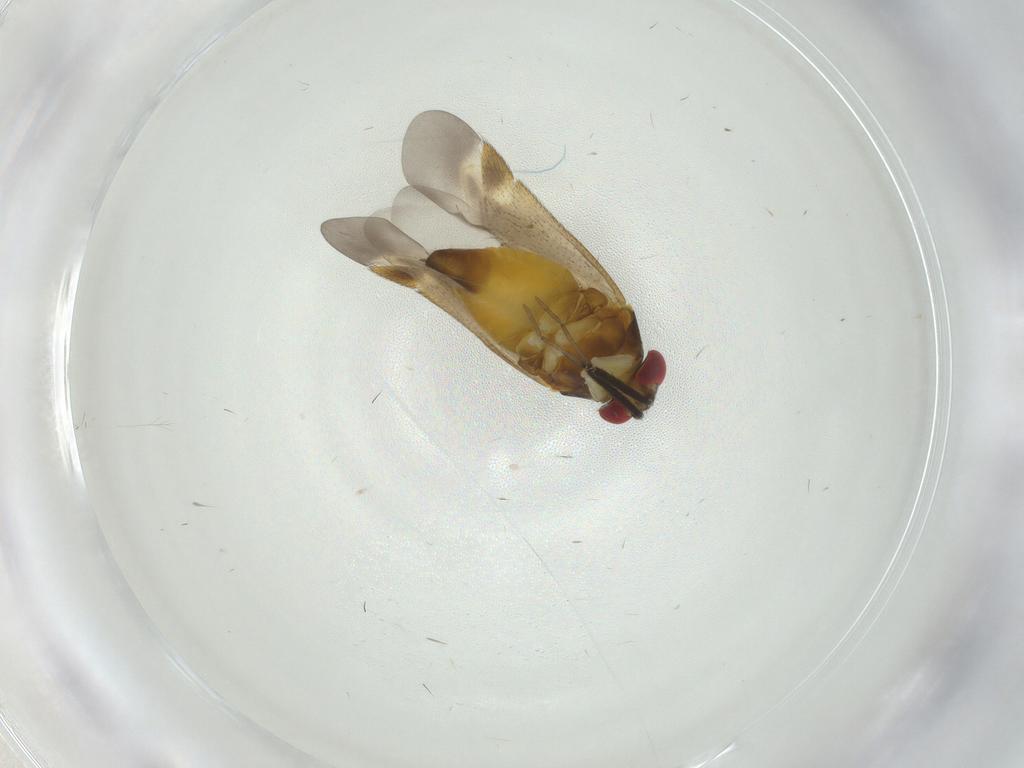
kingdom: Animalia
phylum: Arthropoda
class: Insecta
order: Hemiptera
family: Miridae
